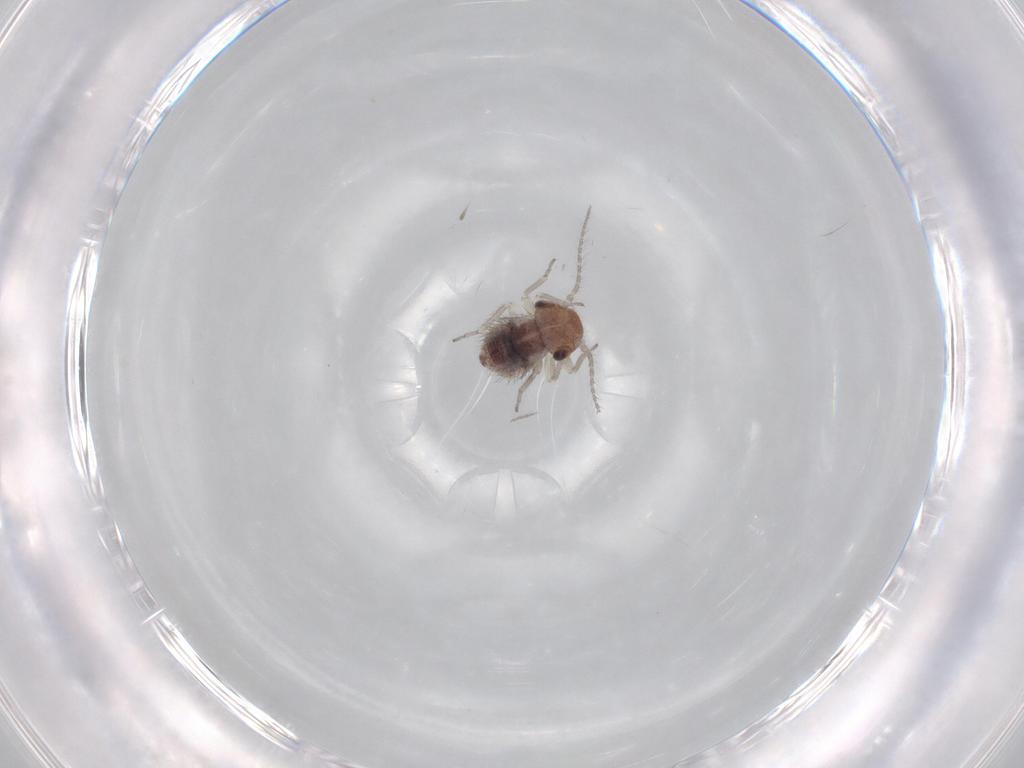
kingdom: Animalia
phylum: Arthropoda
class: Insecta
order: Psocodea
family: Caeciliusidae
